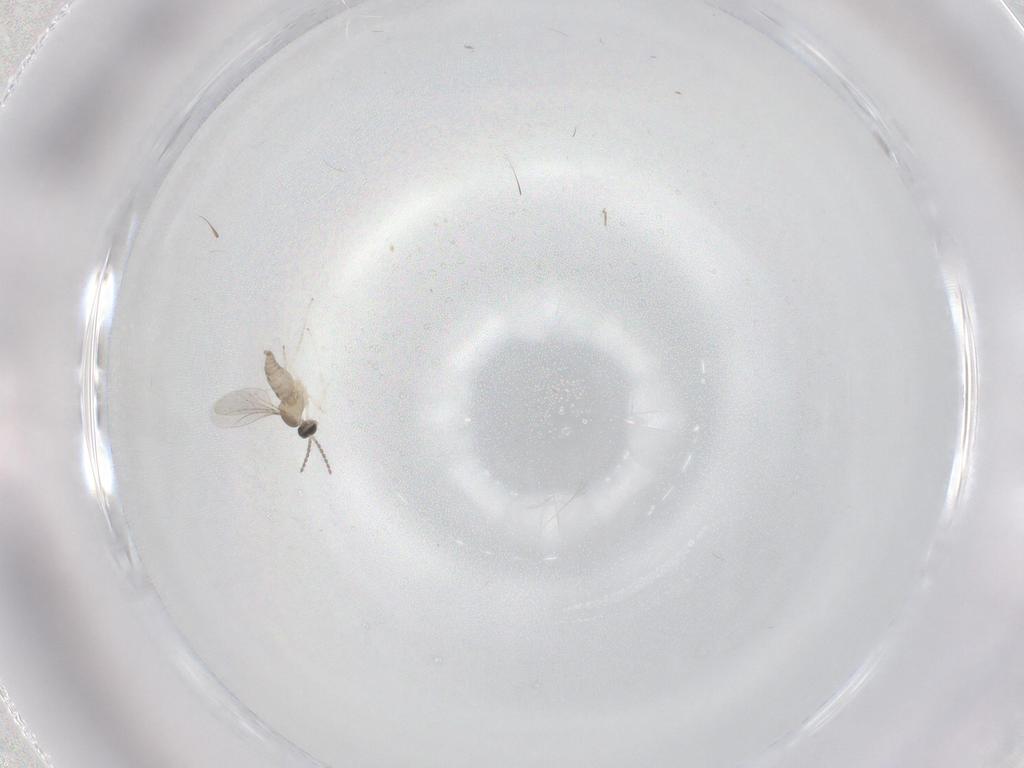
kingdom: Animalia
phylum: Arthropoda
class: Insecta
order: Diptera
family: Cecidomyiidae
